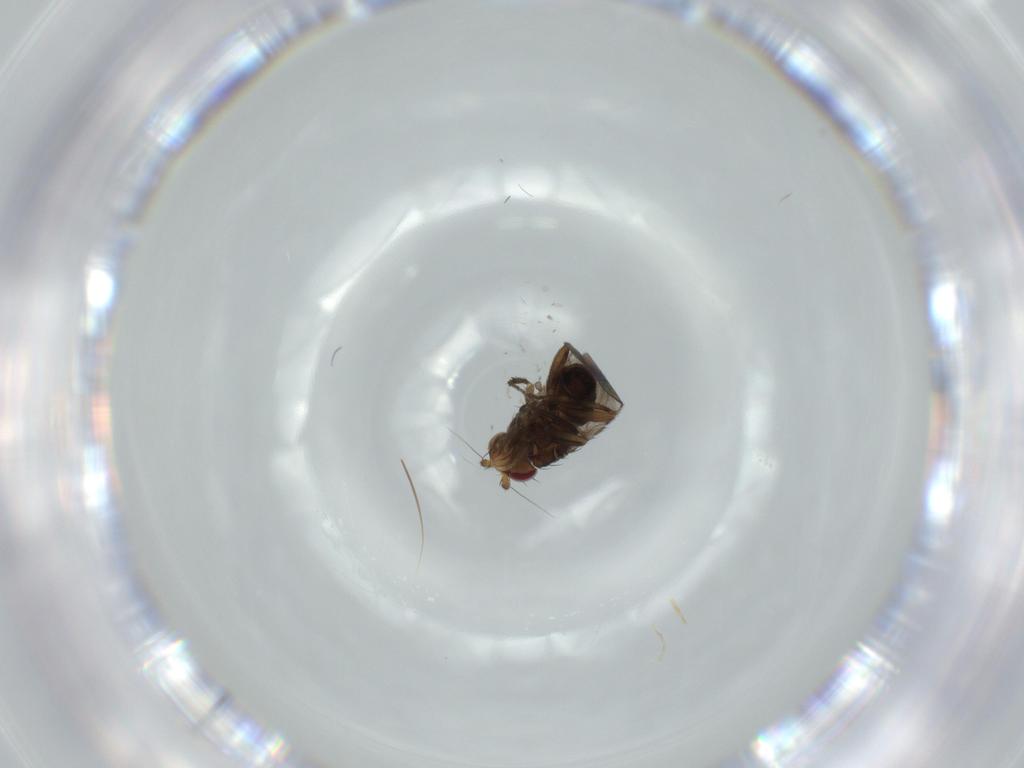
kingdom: Animalia
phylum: Arthropoda
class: Insecta
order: Diptera
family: Sphaeroceridae
